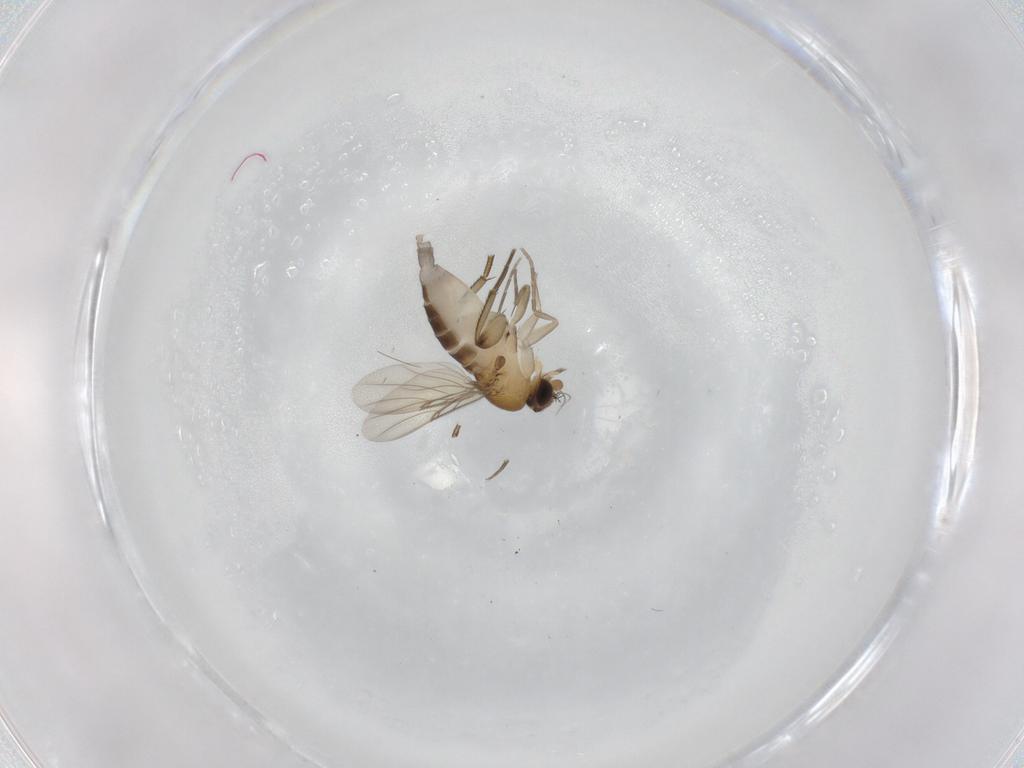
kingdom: Animalia
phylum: Arthropoda
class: Insecta
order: Diptera
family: Phoridae
